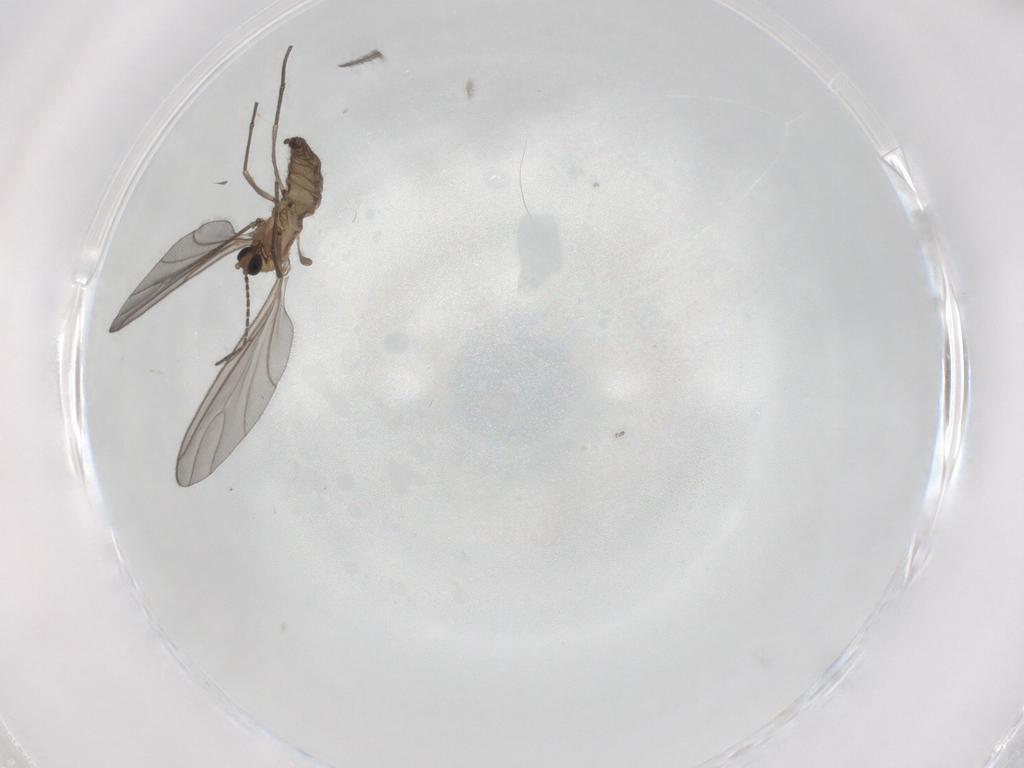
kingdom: Animalia
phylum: Arthropoda
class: Insecta
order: Diptera
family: Sciaridae
